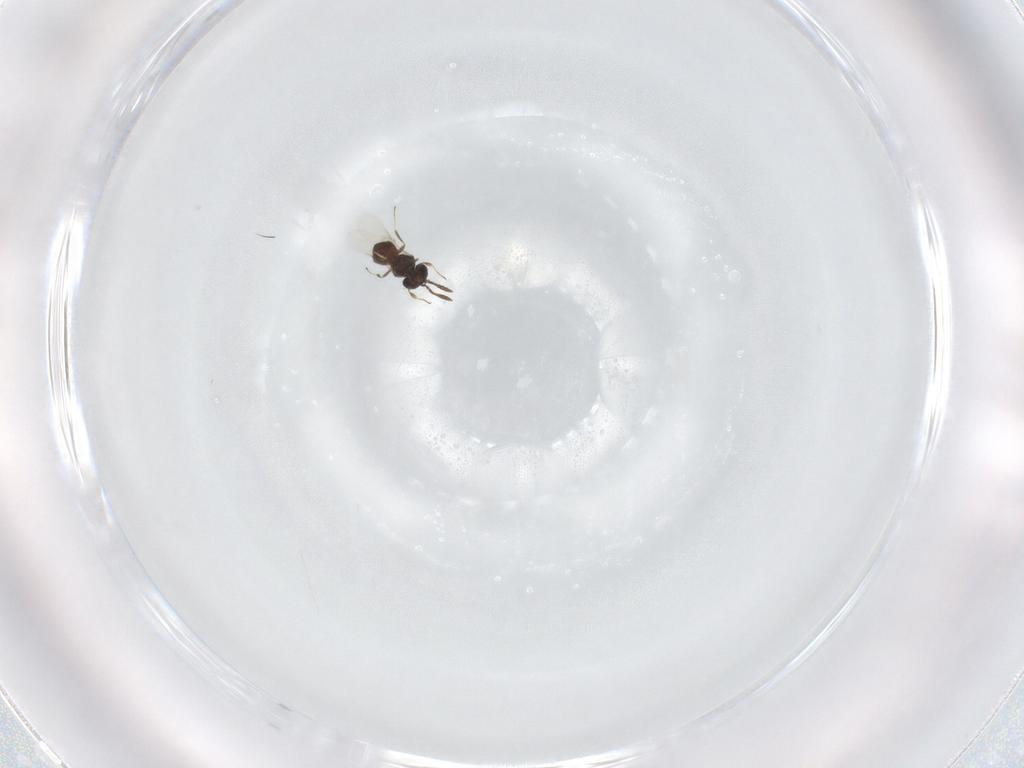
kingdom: Animalia
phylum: Arthropoda
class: Insecta
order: Hymenoptera
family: Scelionidae
